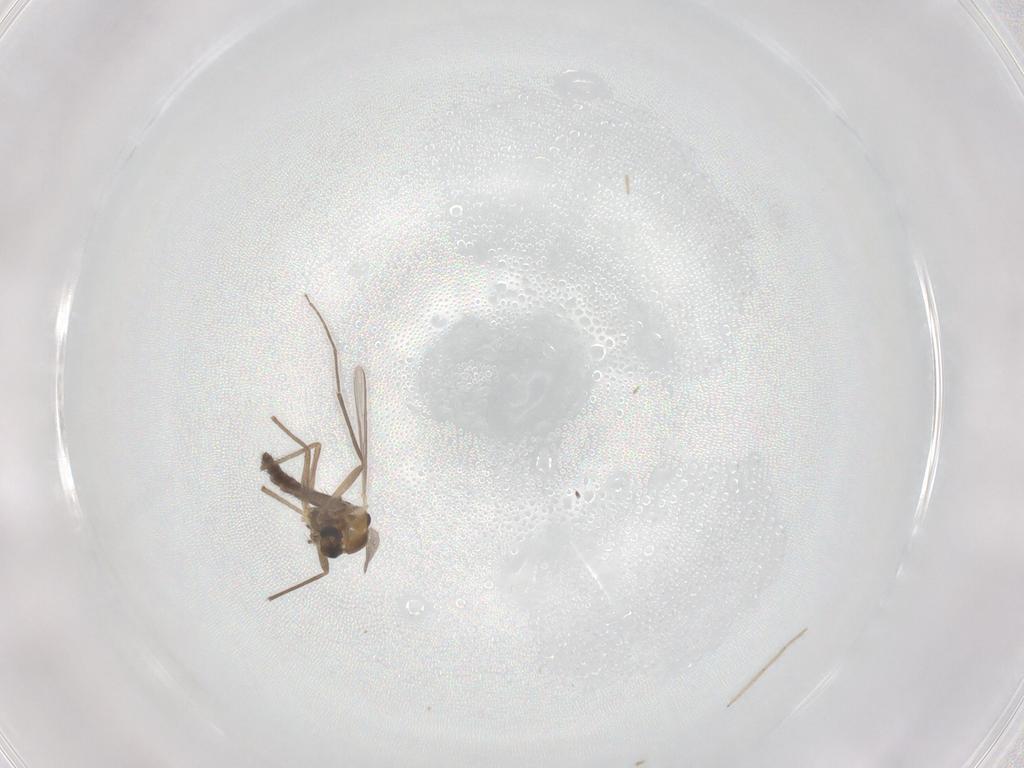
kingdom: Animalia
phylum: Arthropoda
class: Insecta
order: Diptera
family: Chironomidae
